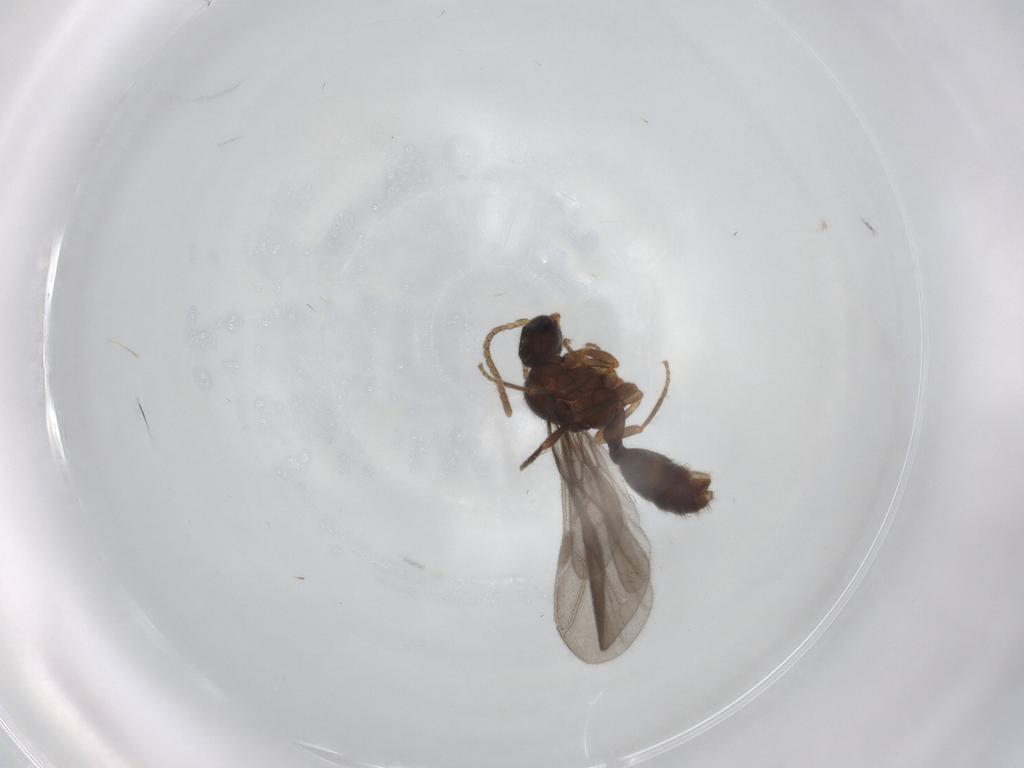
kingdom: Animalia
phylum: Arthropoda
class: Insecta
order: Hymenoptera
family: Formicidae
